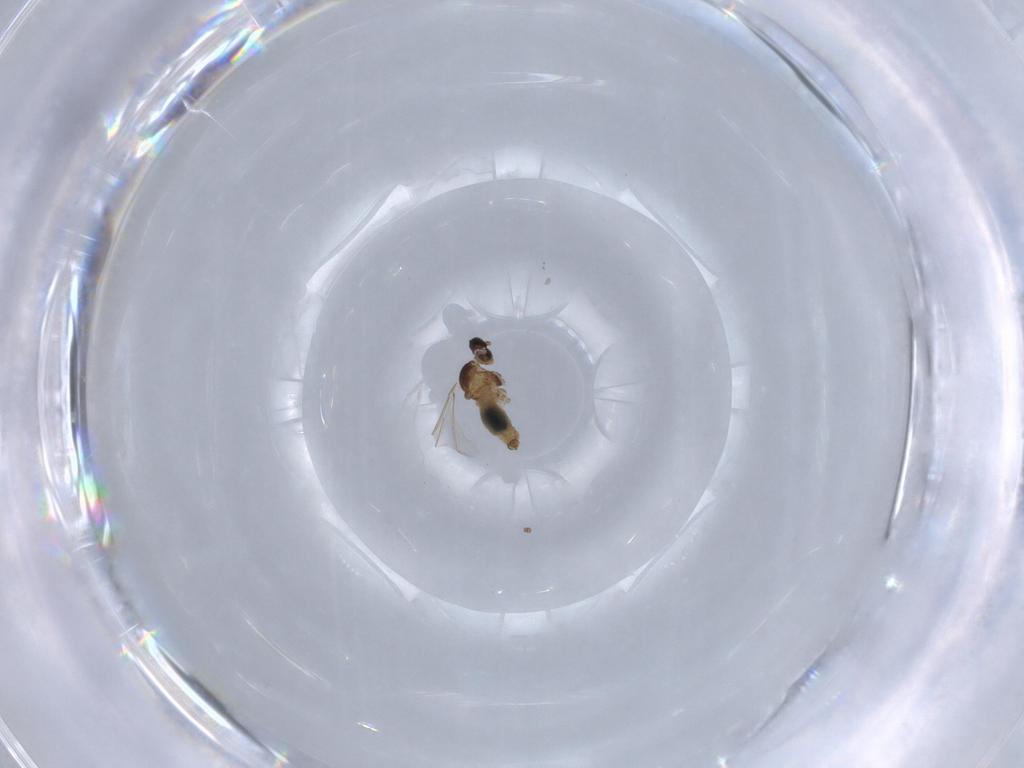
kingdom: Animalia
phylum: Arthropoda
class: Insecta
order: Diptera
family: Cecidomyiidae
